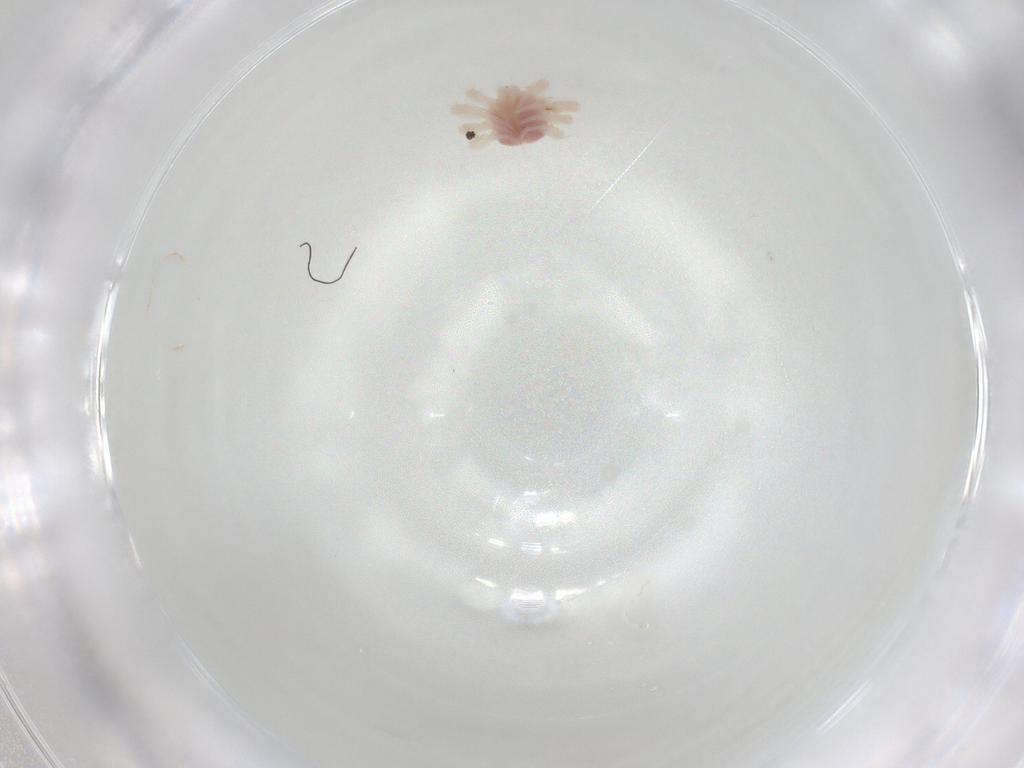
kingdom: Animalia
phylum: Arthropoda
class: Arachnida
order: Trombidiformes
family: Anystidae
